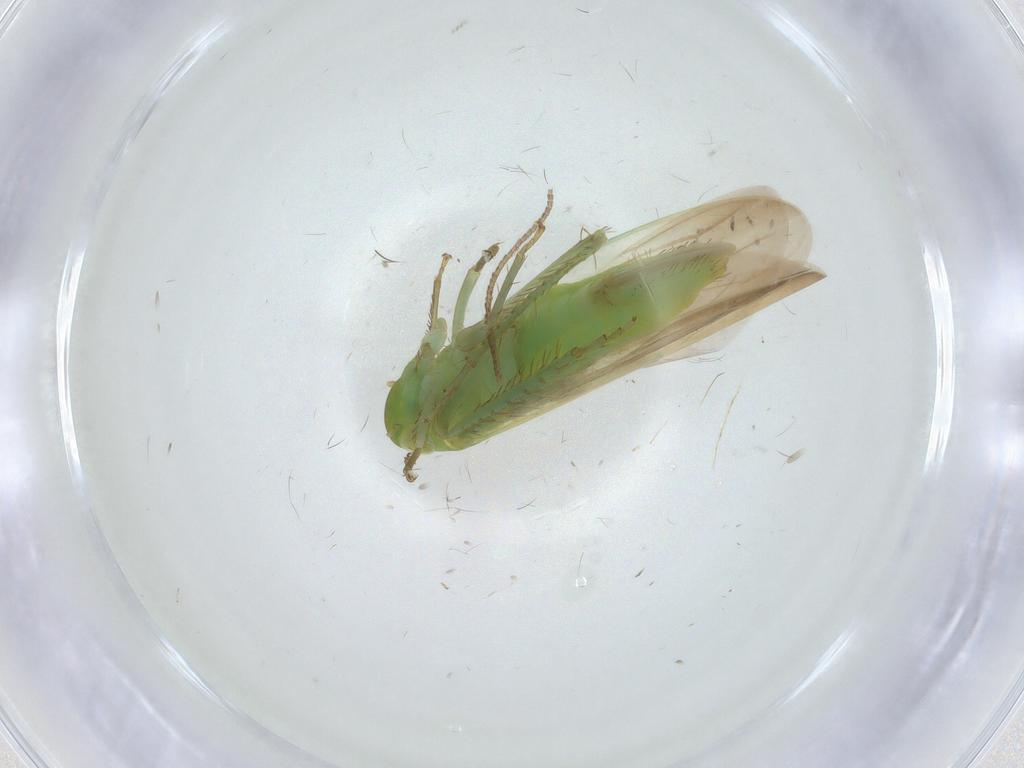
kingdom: Animalia
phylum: Arthropoda
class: Insecta
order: Hemiptera
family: Cicadellidae
